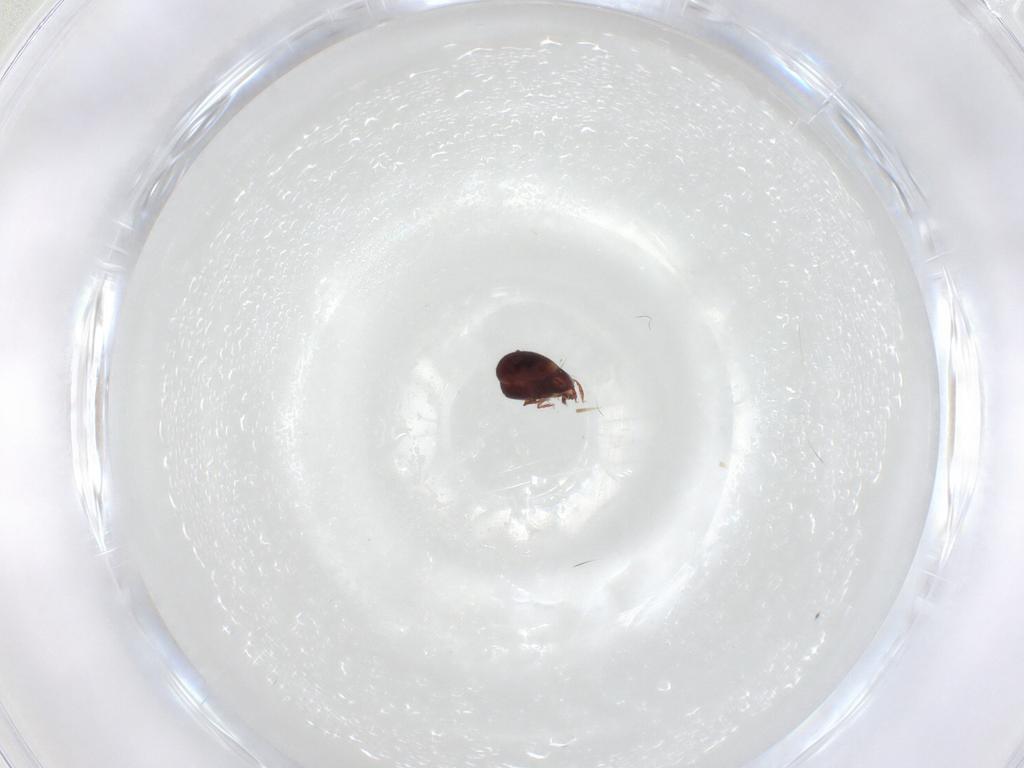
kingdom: Animalia
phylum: Arthropoda
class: Arachnida
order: Sarcoptiformes
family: Humerobatidae
